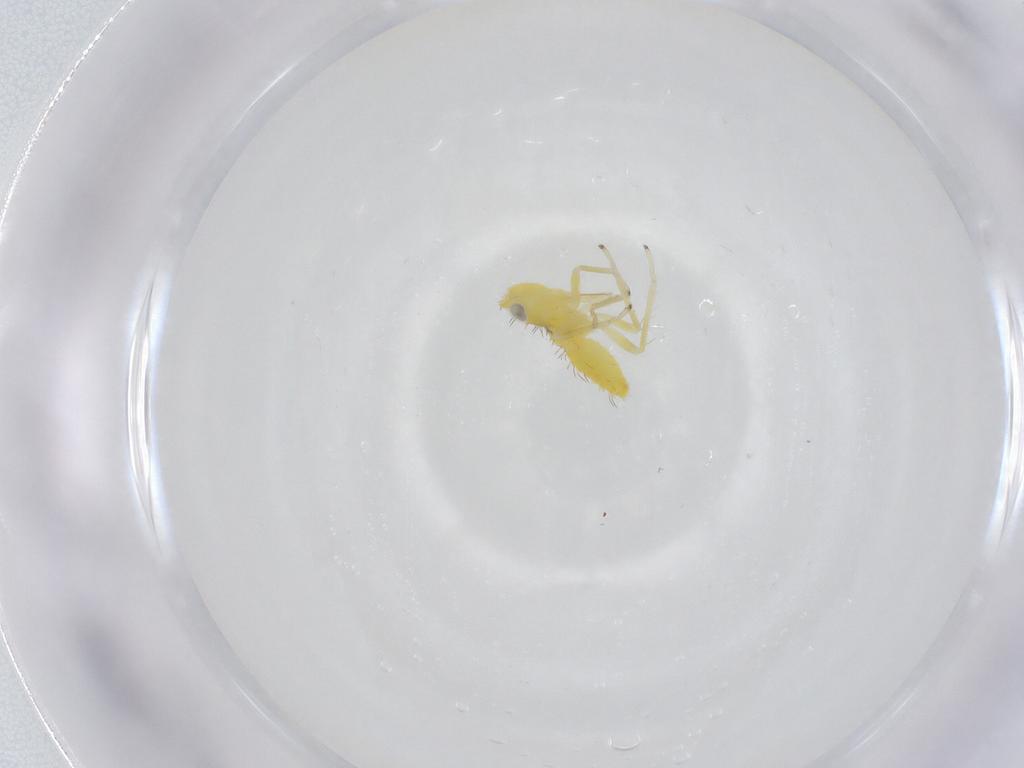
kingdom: Animalia
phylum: Arthropoda
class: Insecta
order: Hemiptera
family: Cicadellidae
